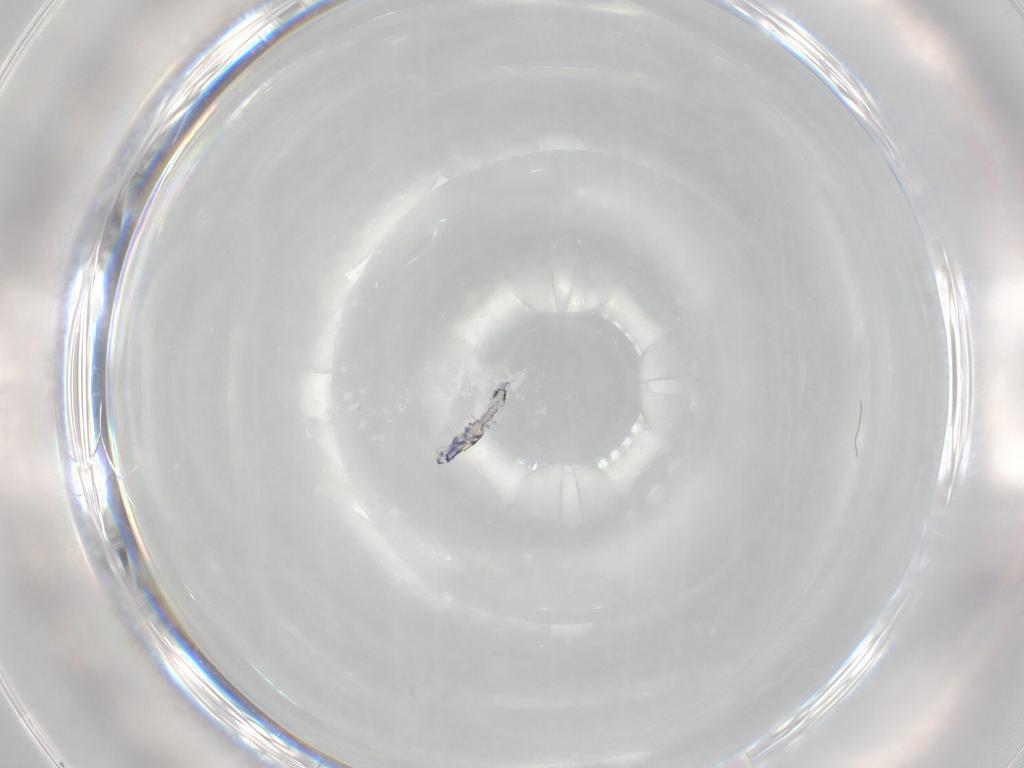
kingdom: Animalia
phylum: Arthropoda
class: Collembola
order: Entomobryomorpha
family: Entomobryidae
